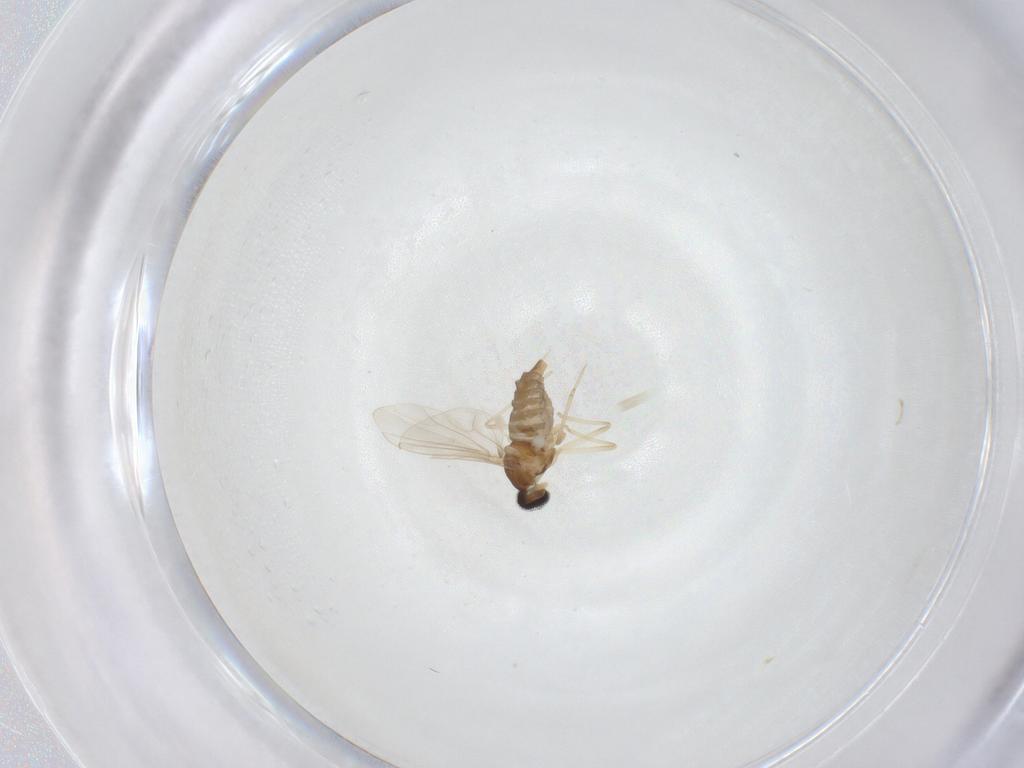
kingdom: Animalia
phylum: Arthropoda
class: Insecta
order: Diptera
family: Cecidomyiidae
